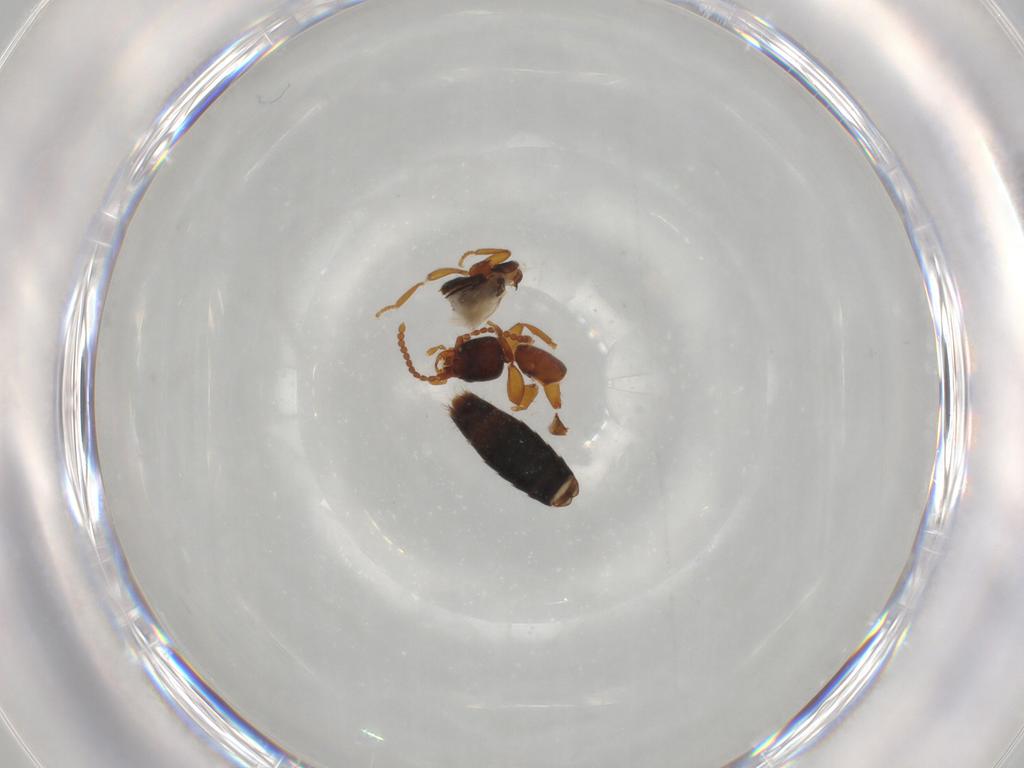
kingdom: Animalia
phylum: Arthropoda
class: Insecta
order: Coleoptera
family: Staphylinidae
